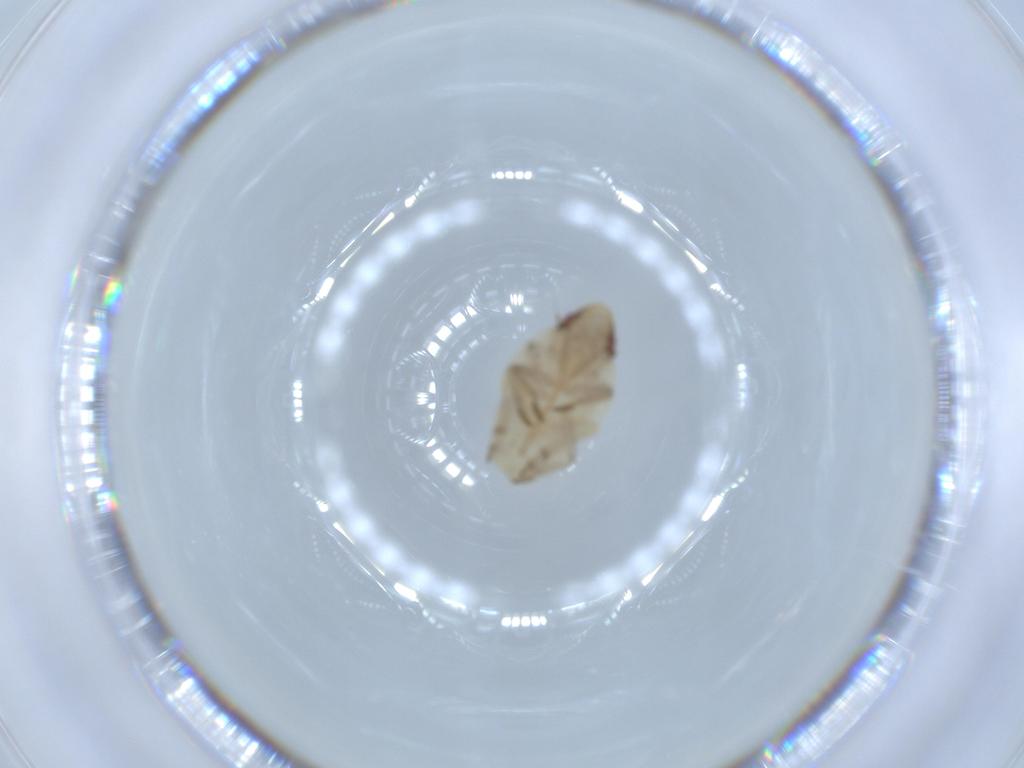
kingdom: Animalia
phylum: Arthropoda
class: Insecta
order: Hemiptera
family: Flatidae
